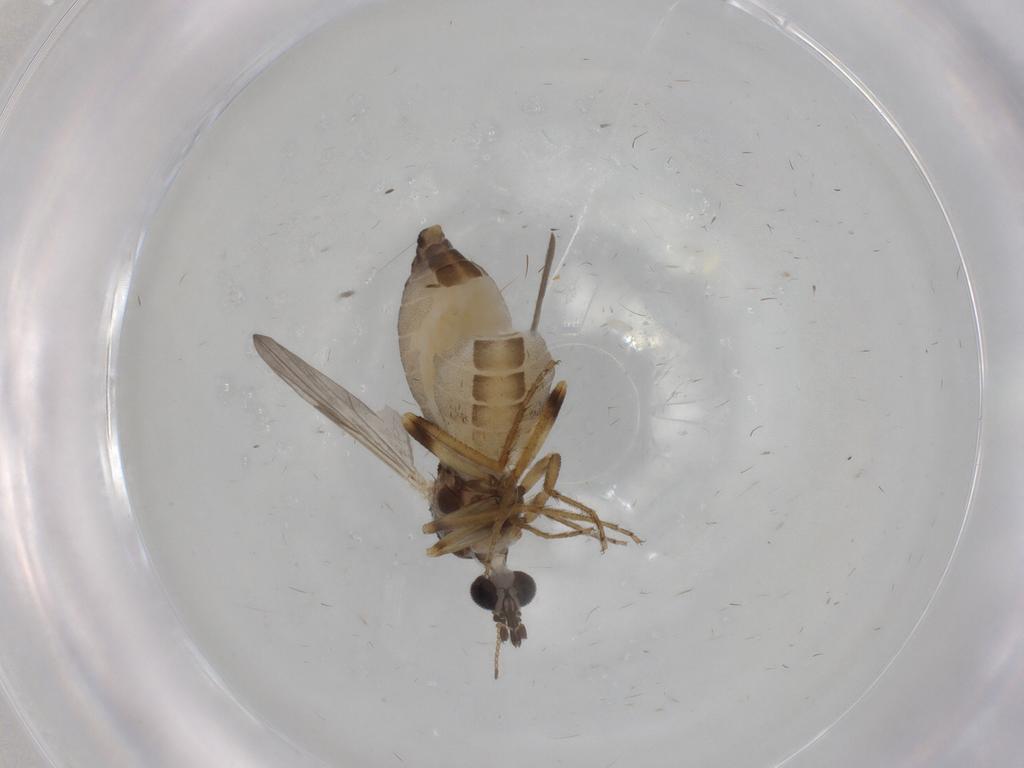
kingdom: Animalia
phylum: Arthropoda
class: Insecta
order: Diptera
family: Ceratopogonidae
